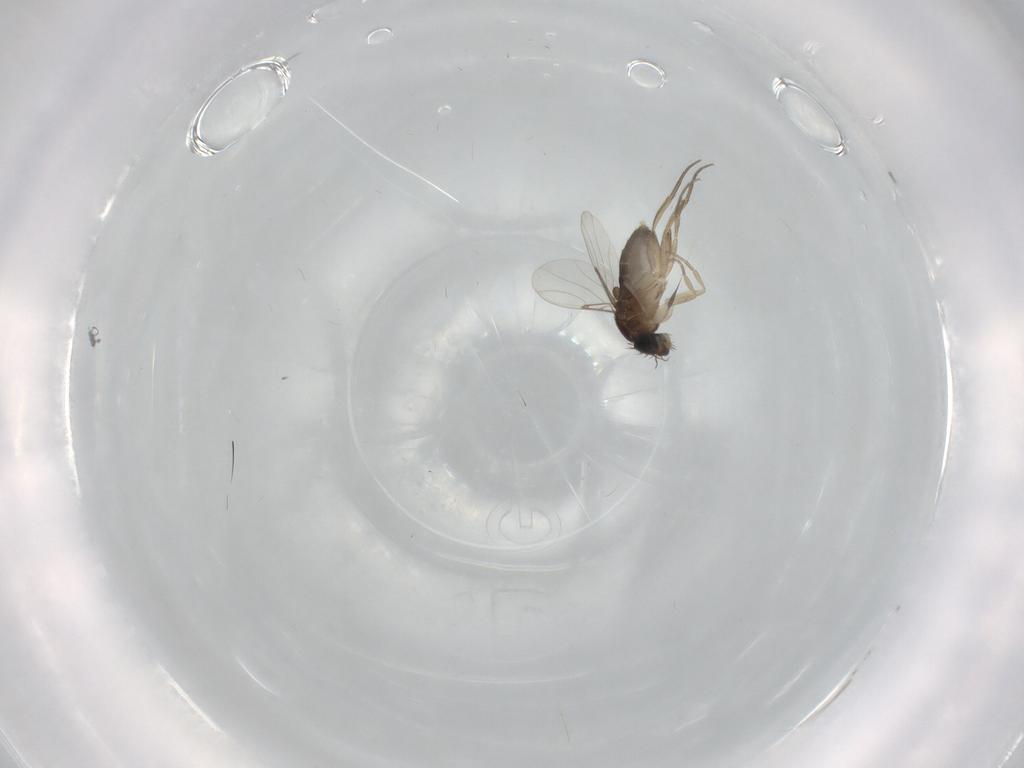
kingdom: Animalia
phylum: Arthropoda
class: Insecta
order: Diptera
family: Phoridae
